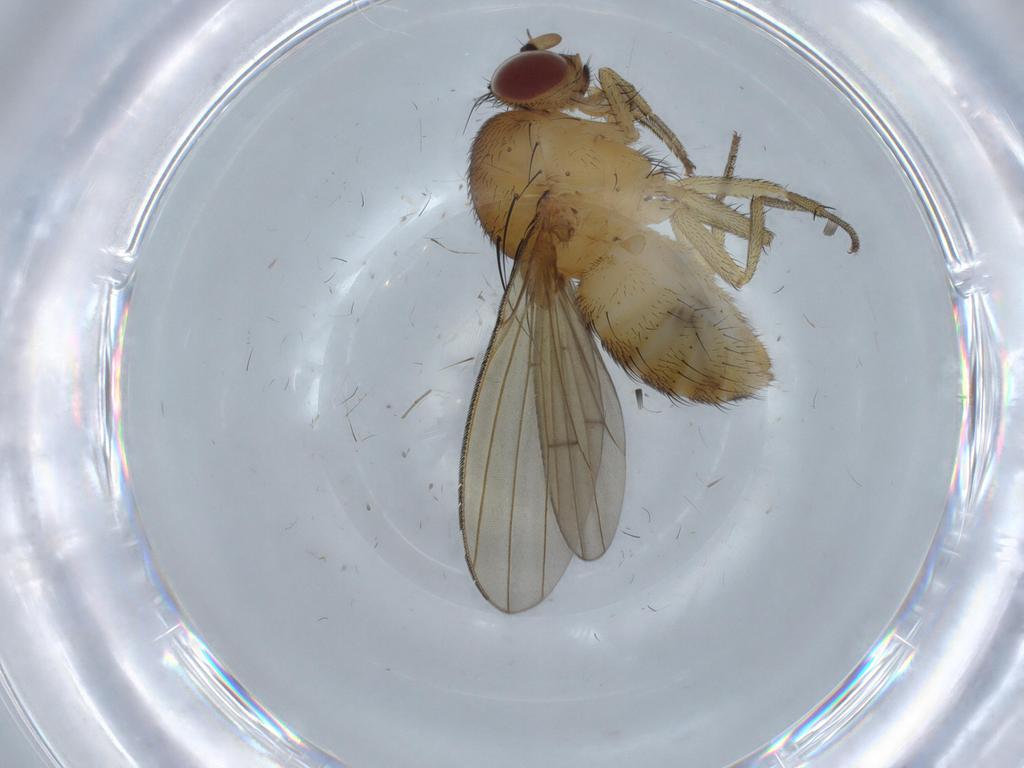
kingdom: Animalia
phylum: Arthropoda
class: Insecta
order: Diptera
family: Chironomidae
